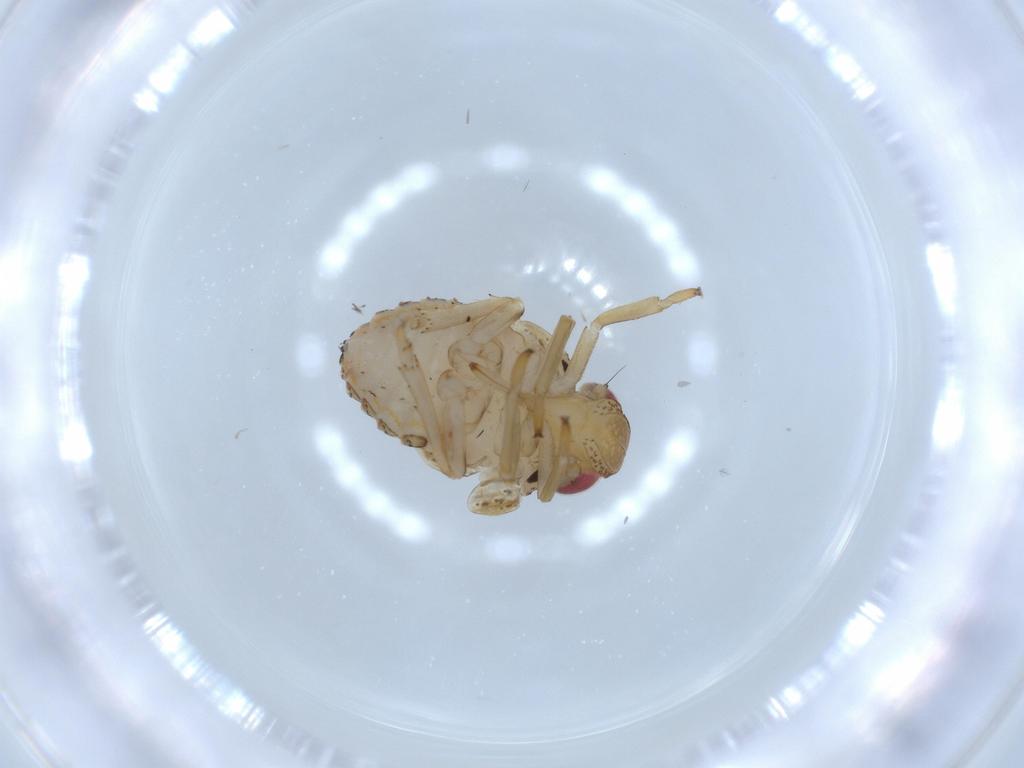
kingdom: Animalia
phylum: Arthropoda
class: Insecta
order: Hemiptera
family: Issidae
